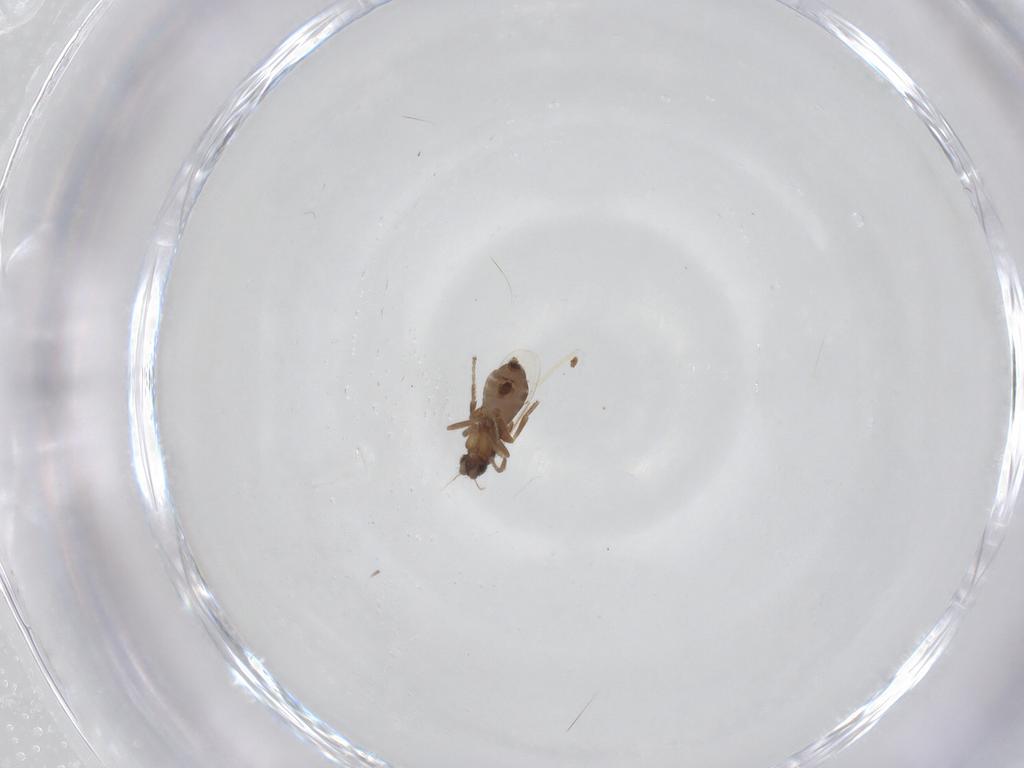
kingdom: Animalia
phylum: Arthropoda
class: Insecta
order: Diptera
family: Phoridae
